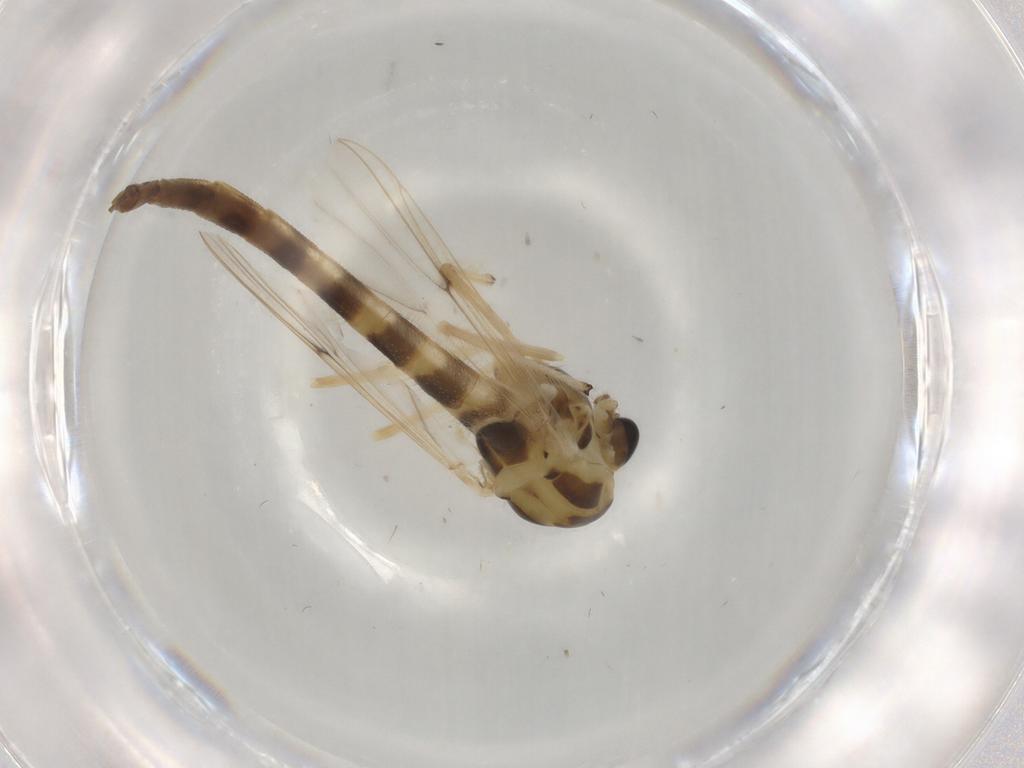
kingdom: Animalia
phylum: Arthropoda
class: Insecta
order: Diptera
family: Chironomidae
